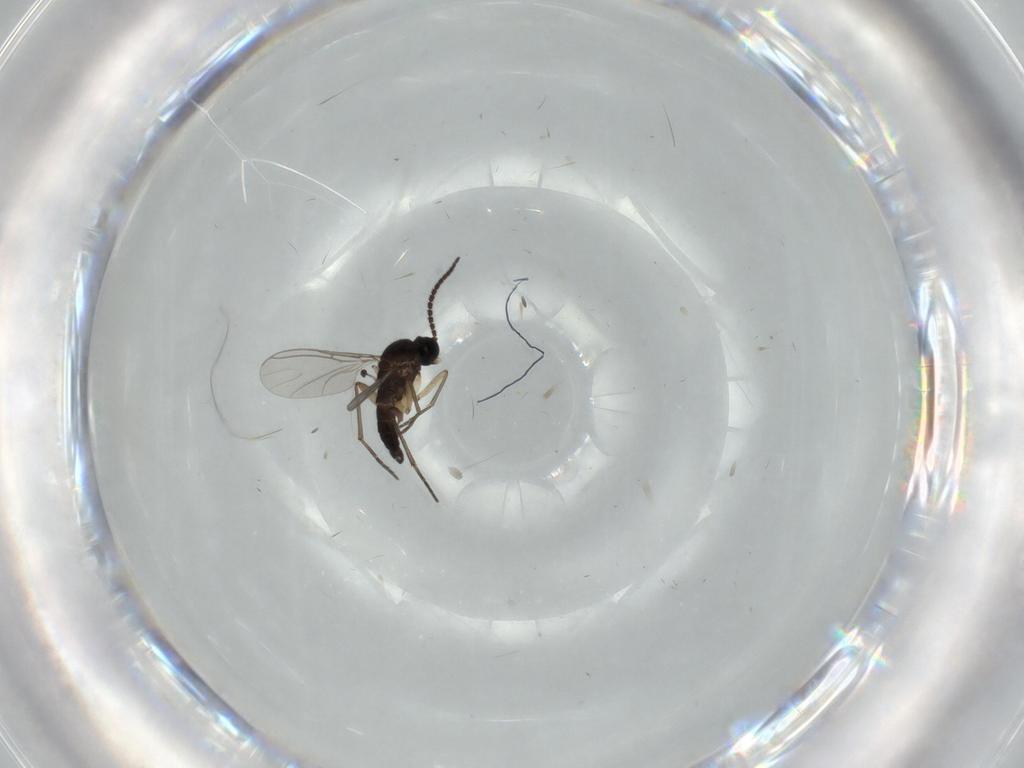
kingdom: Animalia
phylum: Arthropoda
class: Insecta
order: Diptera
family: Sciaridae
